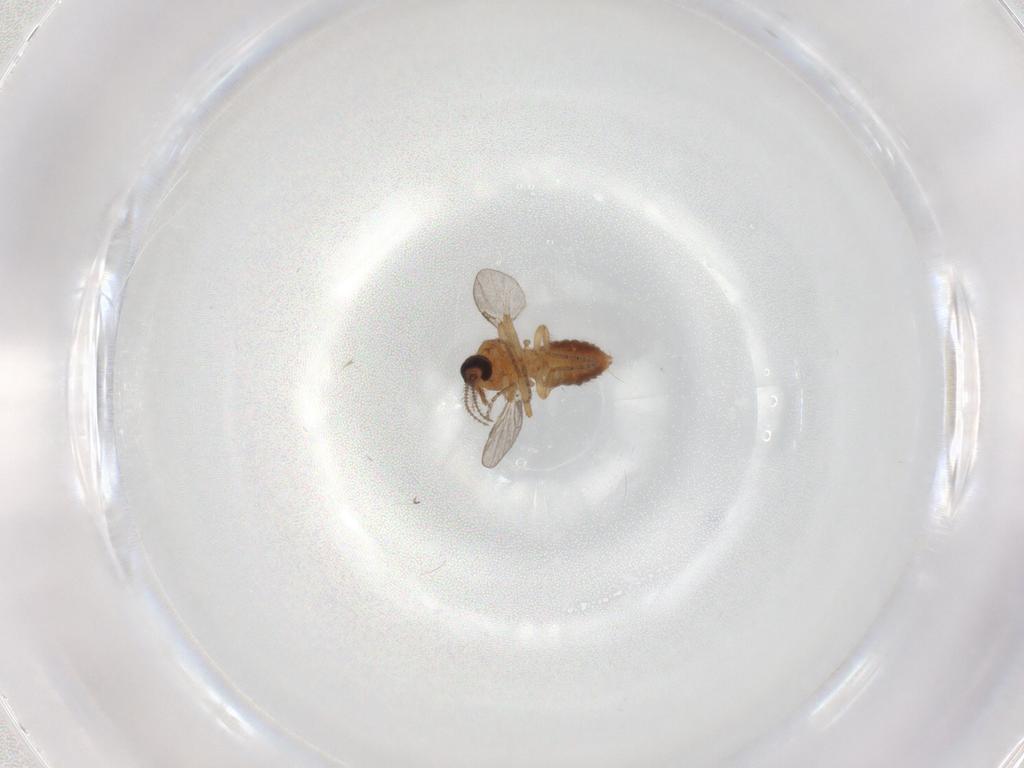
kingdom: Animalia
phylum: Arthropoda
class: Insecta
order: Diptera
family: Ceratopogonidae
